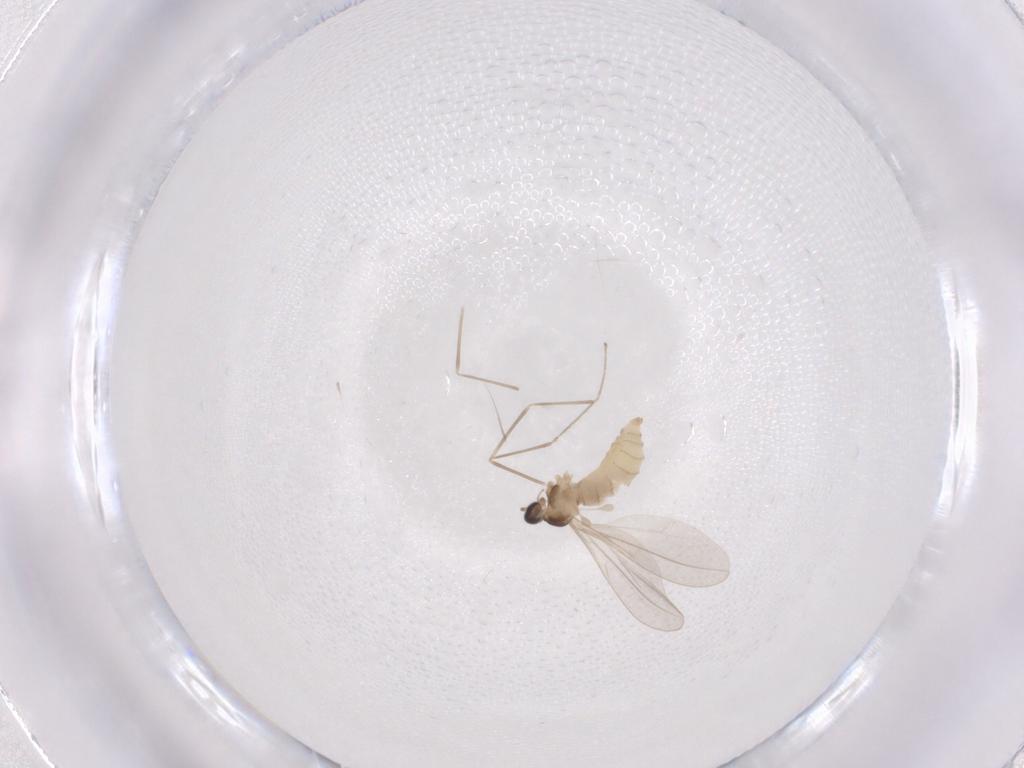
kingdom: Animalia
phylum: Arthropoda
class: Insecta
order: Diptera
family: Cecidomyiidae
